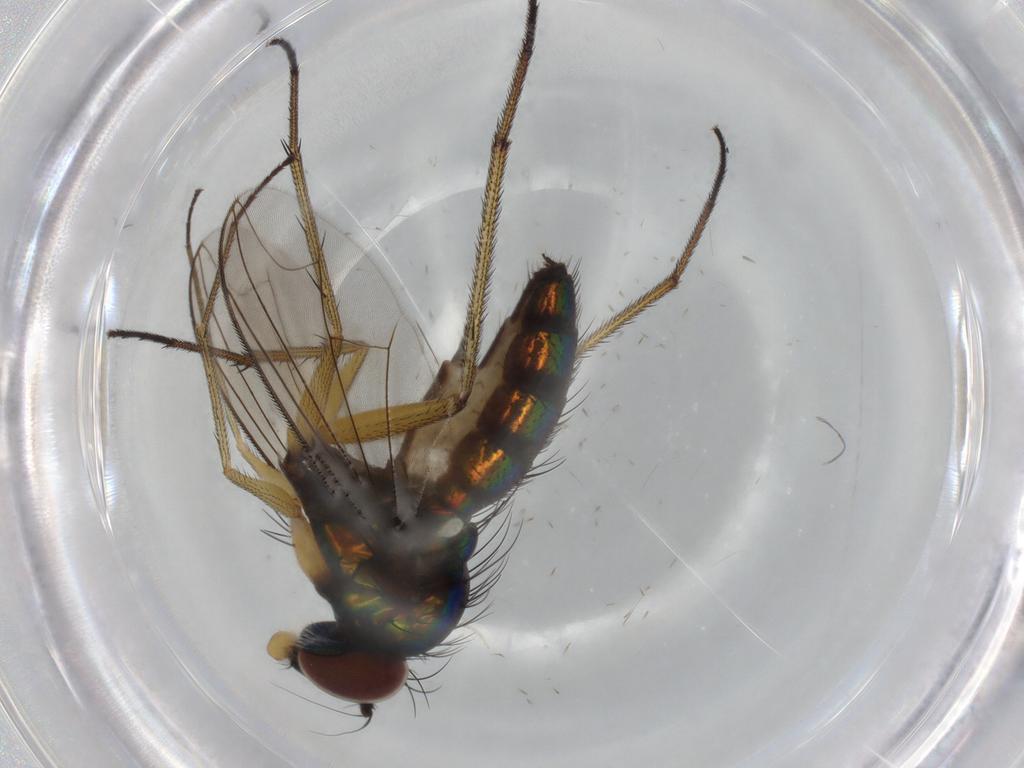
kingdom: Animalia
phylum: Arthropoda
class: Insecta
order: Diptera
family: Dolichopodidae
